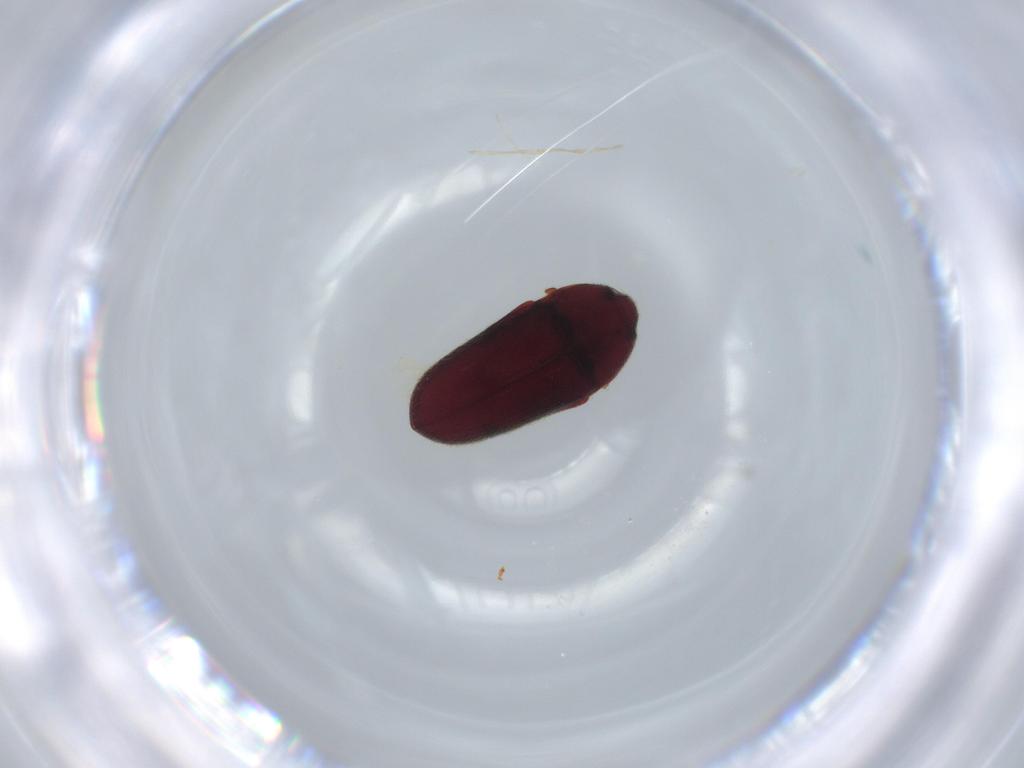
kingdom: Animalia
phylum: Arthropoda
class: Insecta
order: Coleoptera
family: Throscidae
